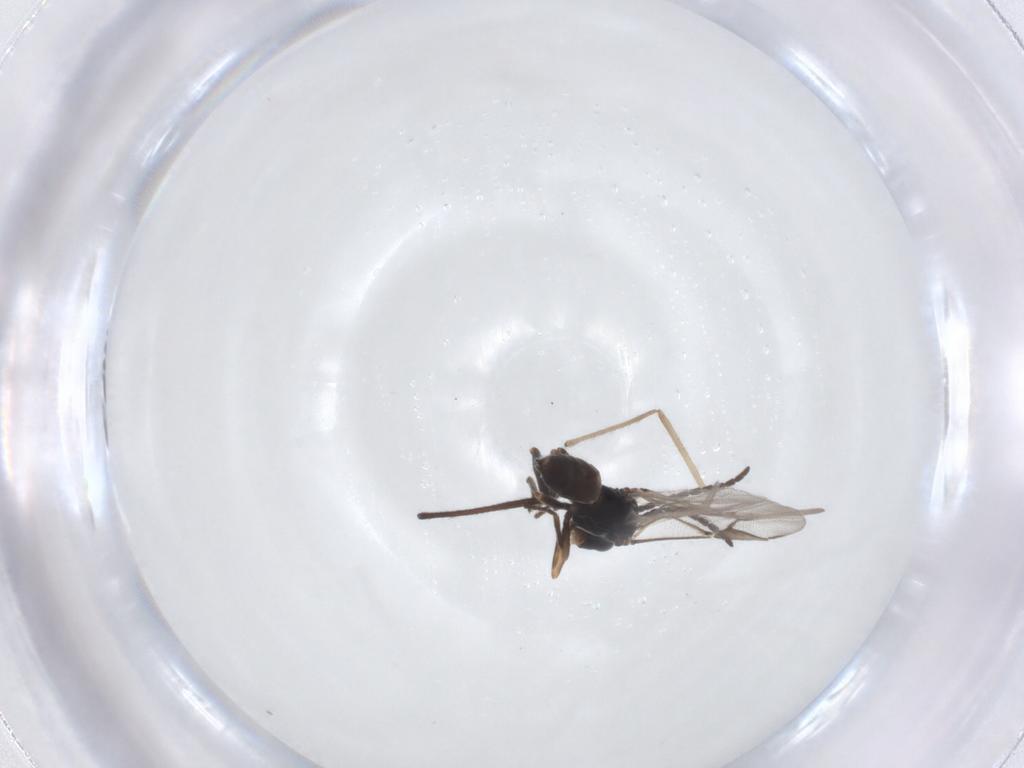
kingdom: Animalia
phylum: Arthropoda
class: Insecta
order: Diptera
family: Chironomidae
